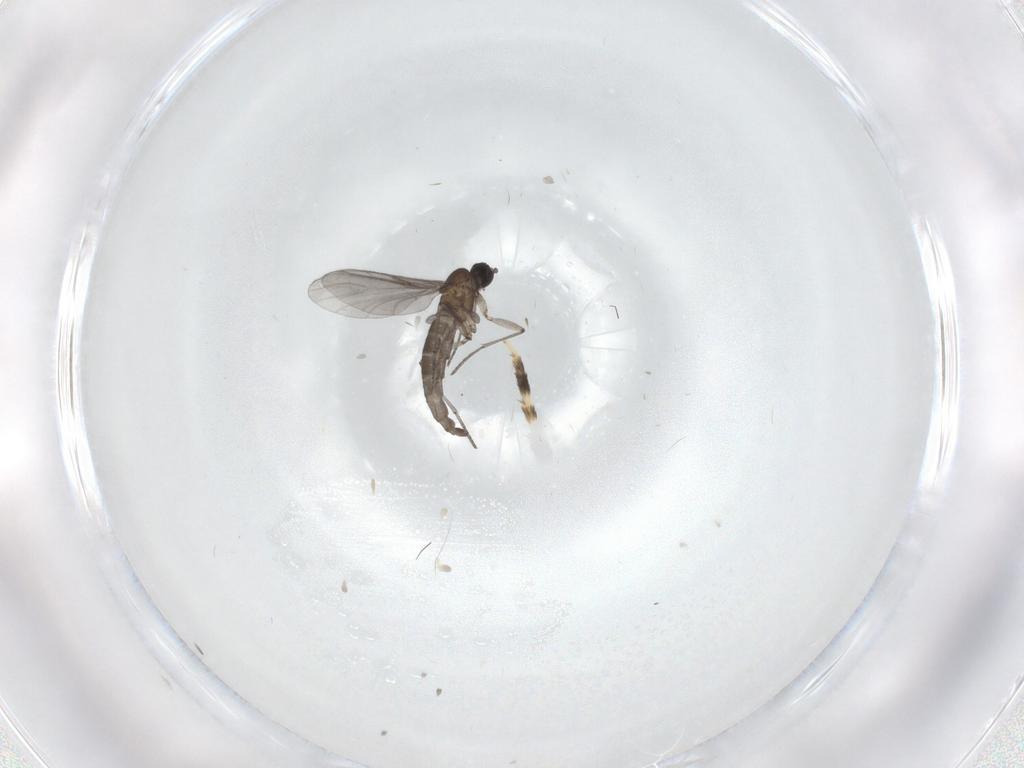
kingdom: Animalia
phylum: Arthropoda
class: Insecta
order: Diptera
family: Sciaridae
